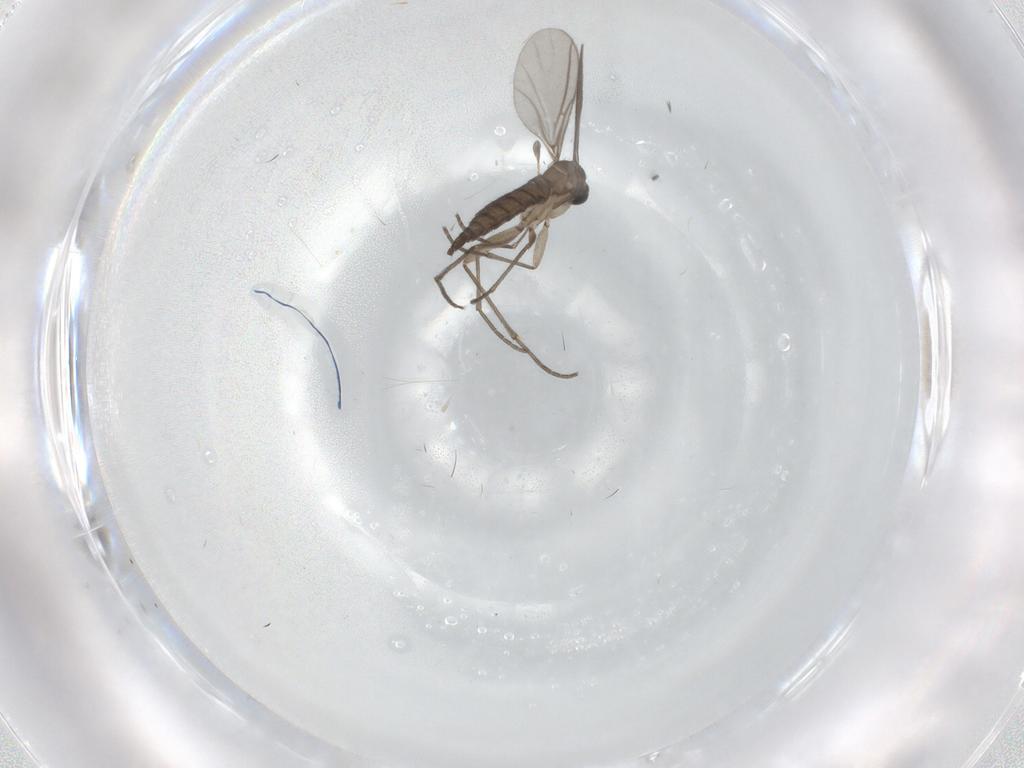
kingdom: Animalia
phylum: Arthropoda
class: Insecta
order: Diptera
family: Sciaridae
